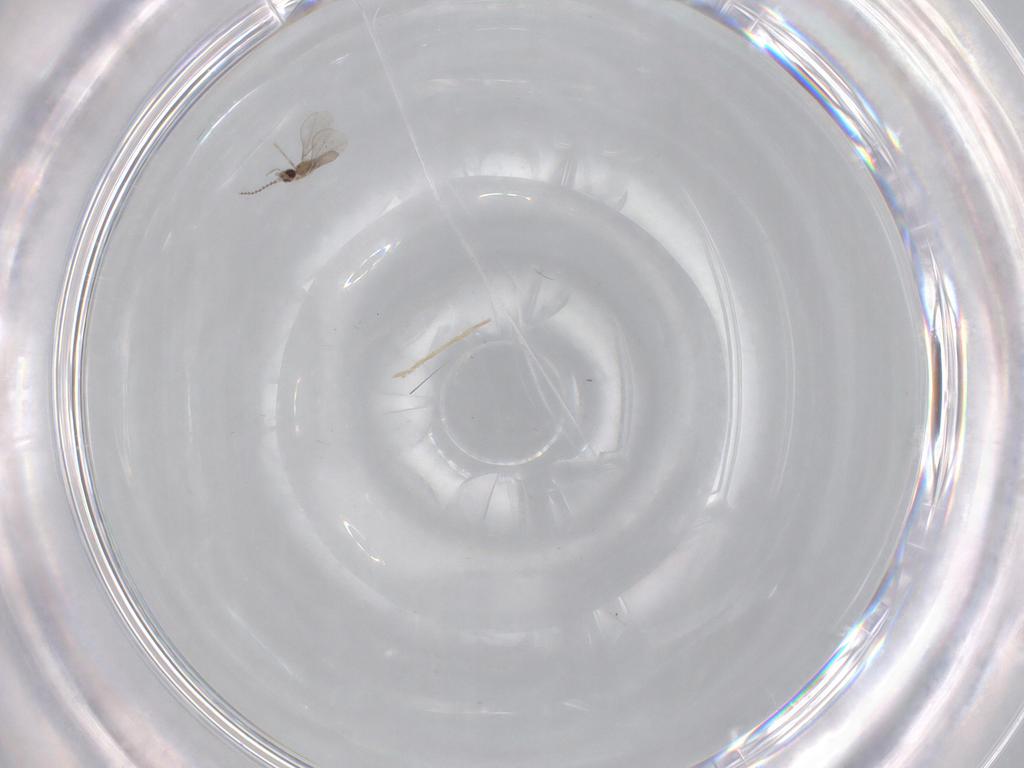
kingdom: Animalia
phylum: Arthropoda
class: Insecta
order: Diptera
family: Cecidomyiidae
